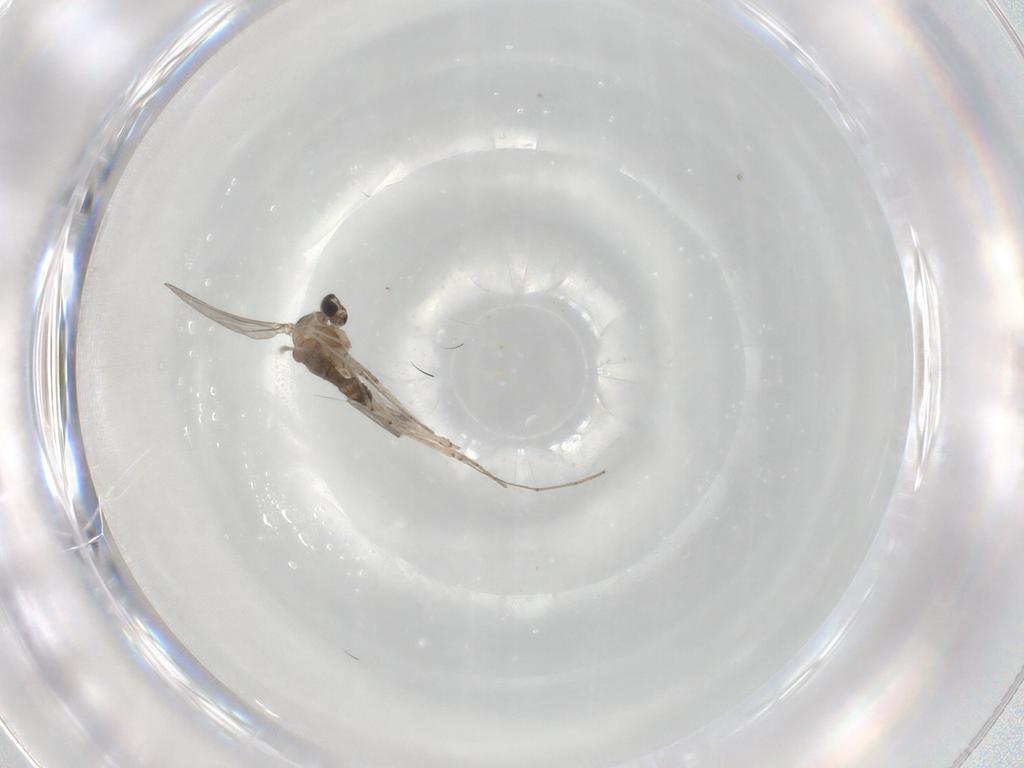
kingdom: Animalia
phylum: Arthropoda
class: Insecta
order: Diptera
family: Cecidomyiidae
